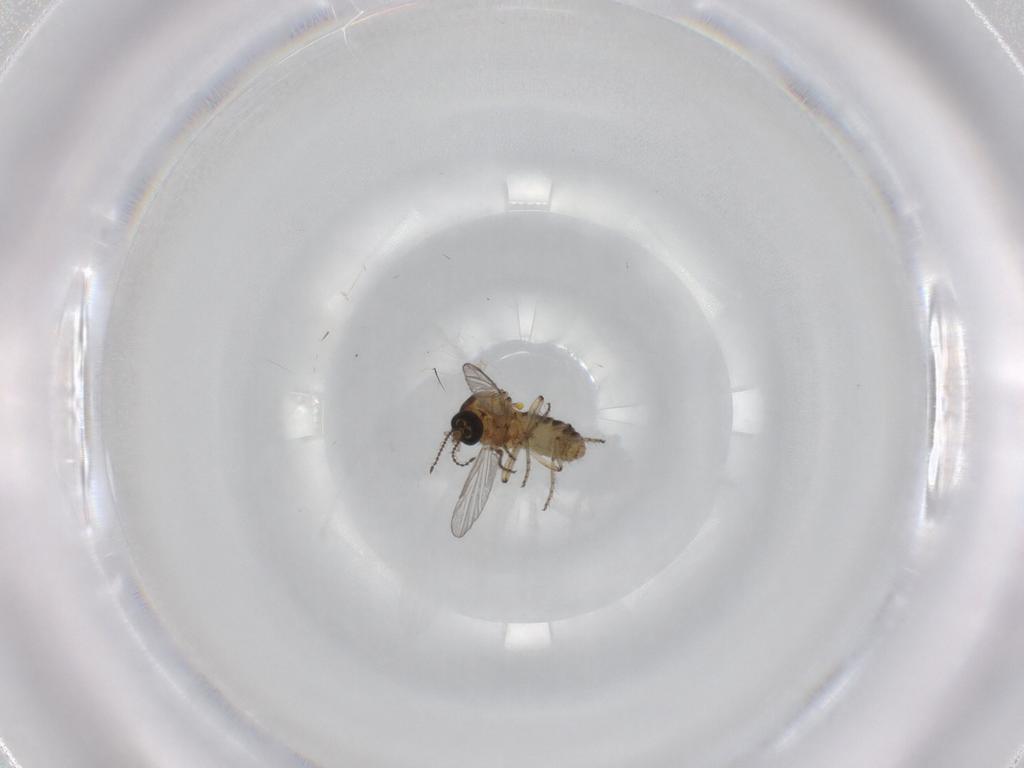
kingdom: Animalia
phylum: Arthropoda
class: Insecta
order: Diptera
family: Ceratopogonidae
